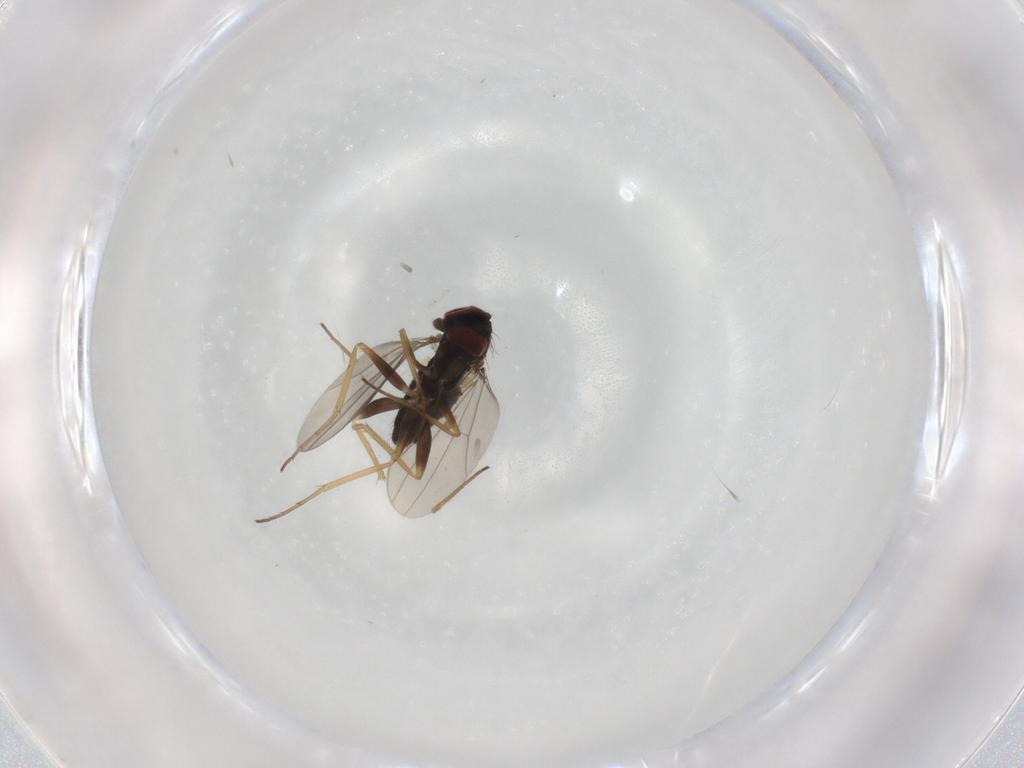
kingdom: Animalia
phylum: Arthropoda
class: Insecta
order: Diptera
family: Dolichopodidae
